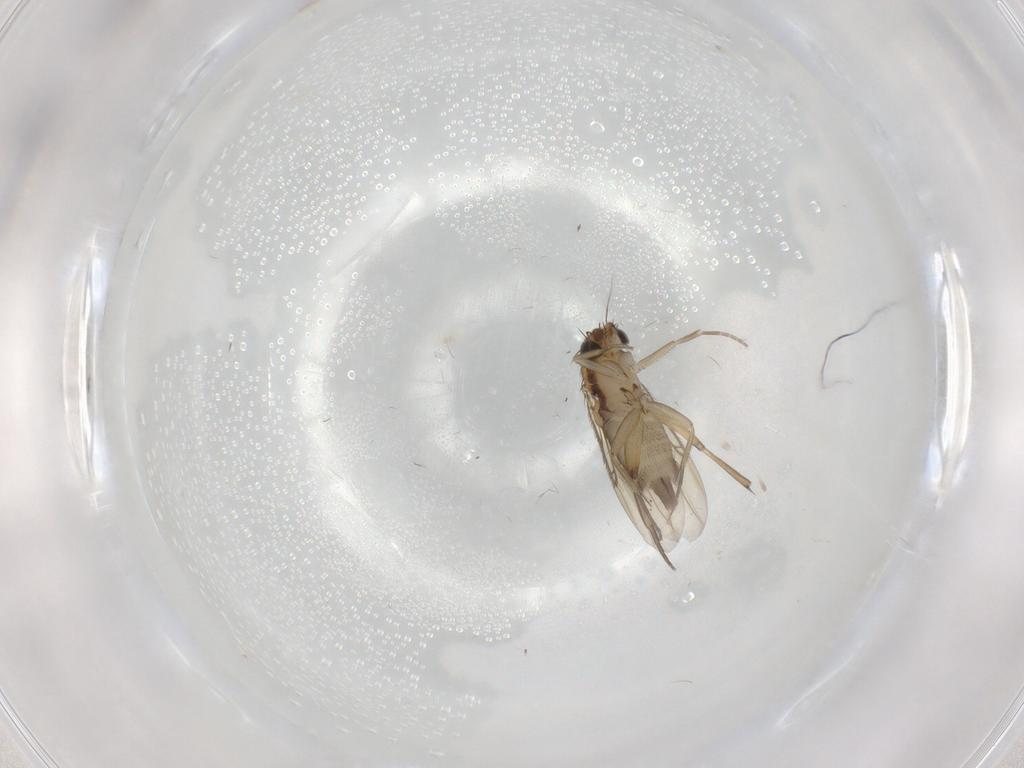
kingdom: Animalia
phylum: Arthropoda
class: Insecta
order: Diptera
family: Phoridae
